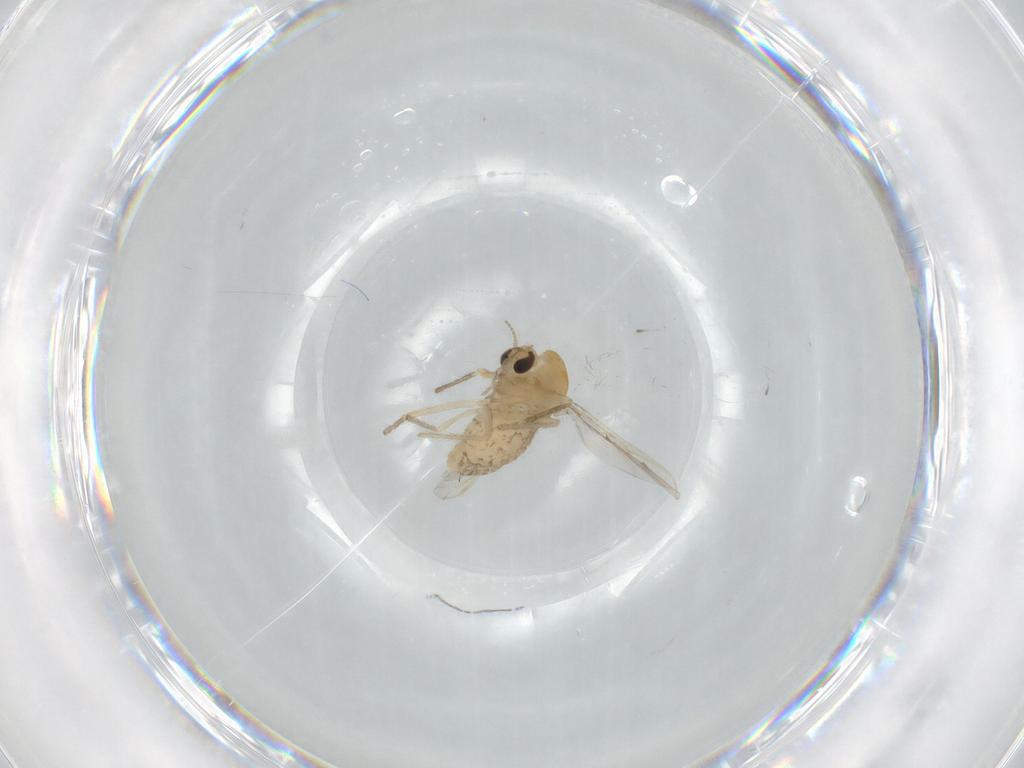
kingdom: Animalia
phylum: Arthropoda
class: Insecta
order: Diptera
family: Chironomidae
